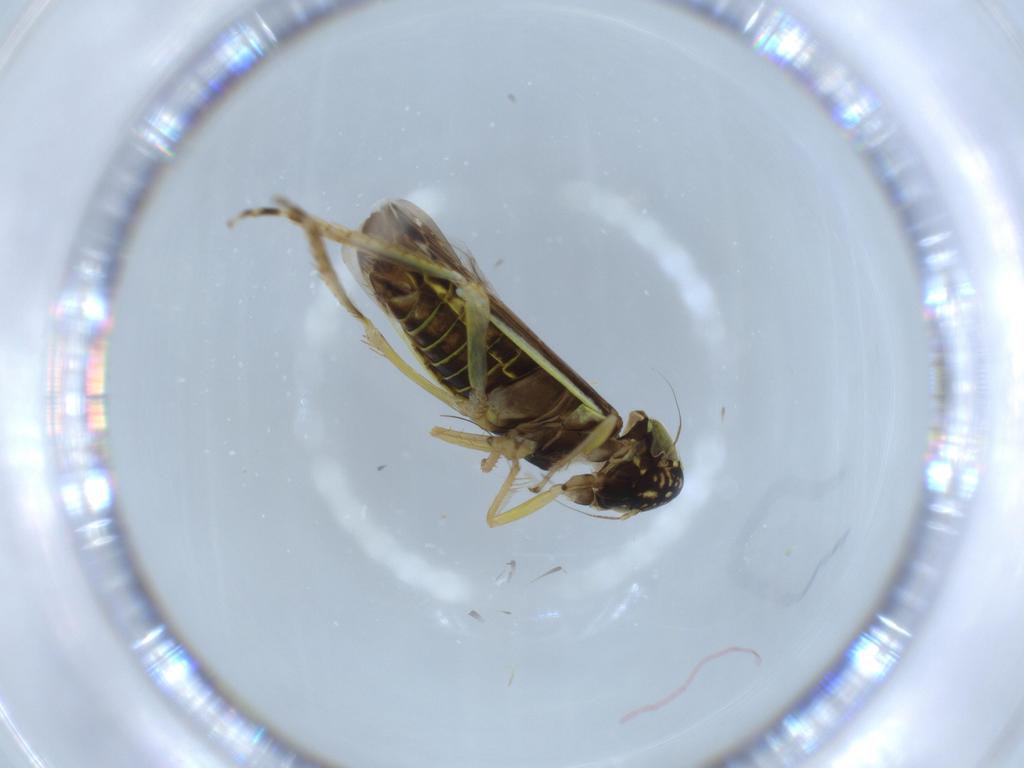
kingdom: Animalia
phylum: Arthropoda
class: Insecta
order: Hemiptera
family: Cicadellidae
